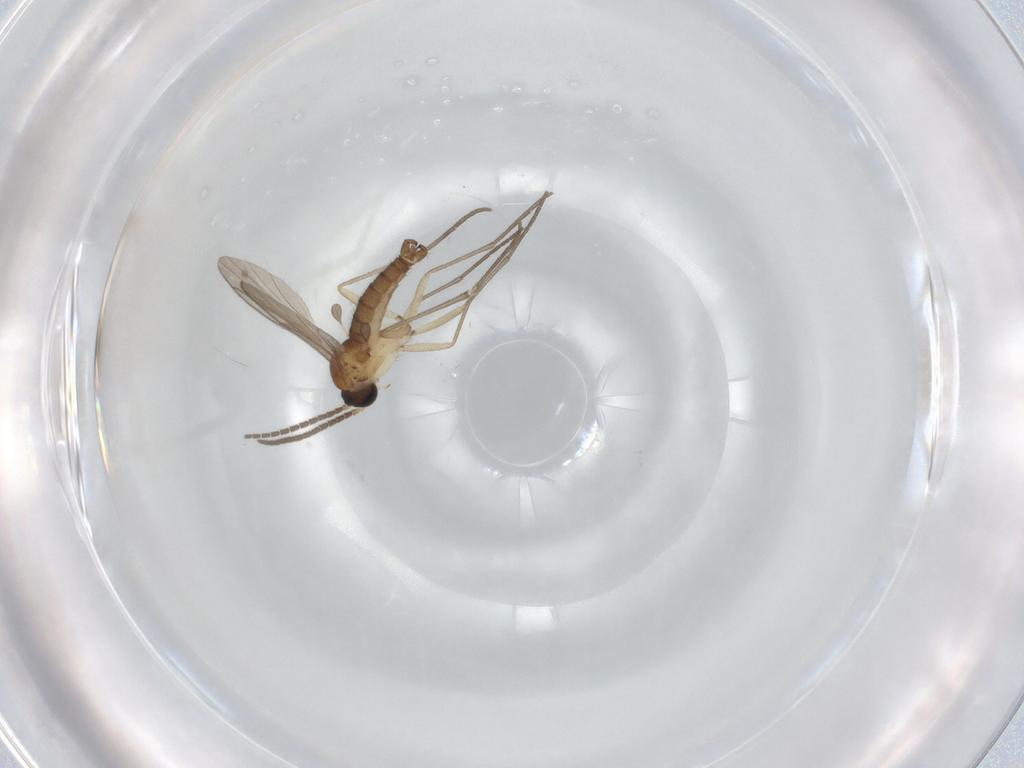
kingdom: Animalia
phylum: Arthropoda
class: Insecta
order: Diptera
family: Sciaridae
